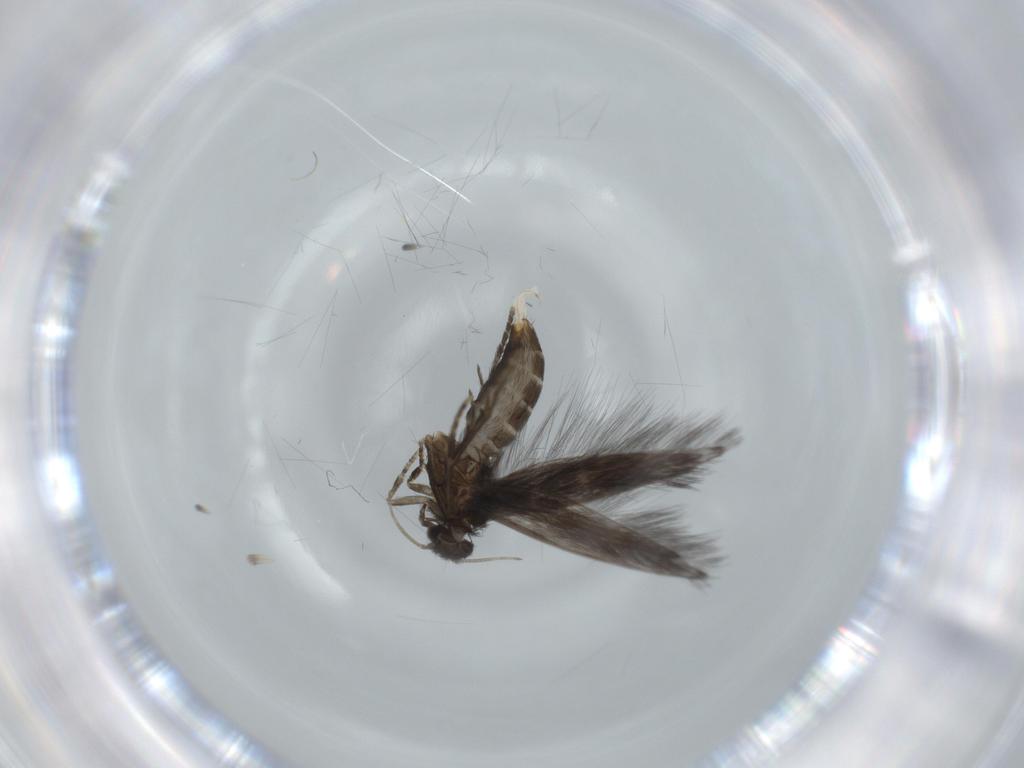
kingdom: Animalia
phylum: Arthropoda
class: Insecta
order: Trichoptera
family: Hydroptilidae
